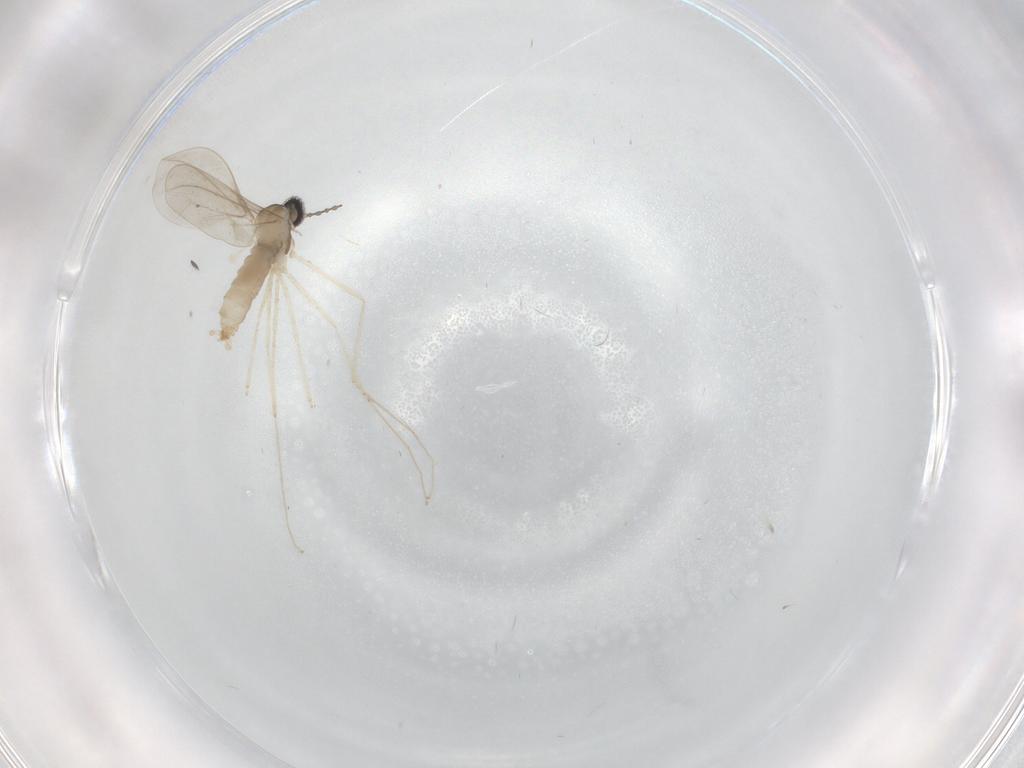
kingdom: Animalia
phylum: Arthropoda
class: Insecta
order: Diptera
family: Cecidomyiidae
